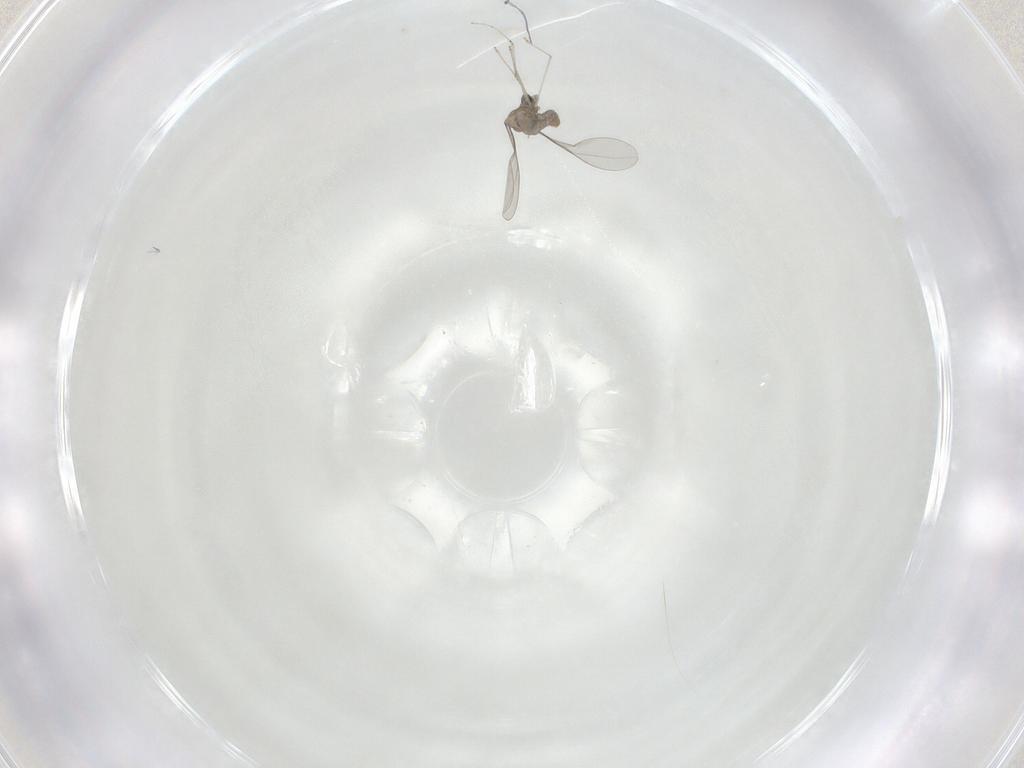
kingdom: Animalia
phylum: Arthropoda
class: Insecta
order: Diptera
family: Cecidomyiidae
